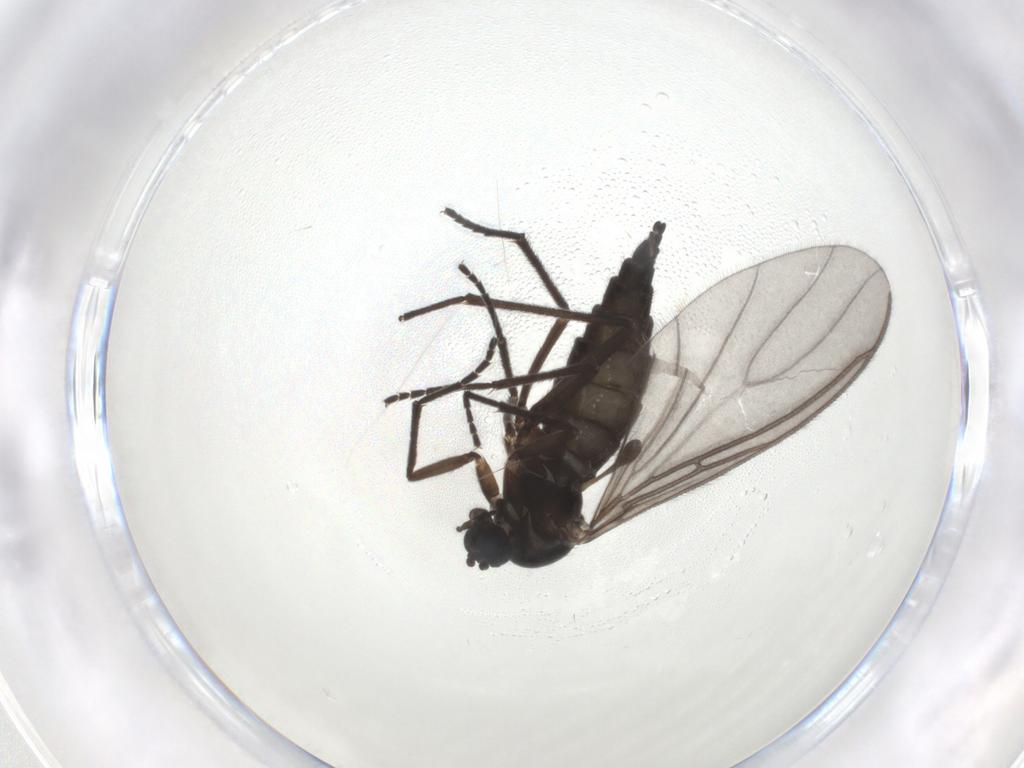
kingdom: Animalia
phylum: Arthropoda
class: Insecta
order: Diptera
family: Sciaridae
